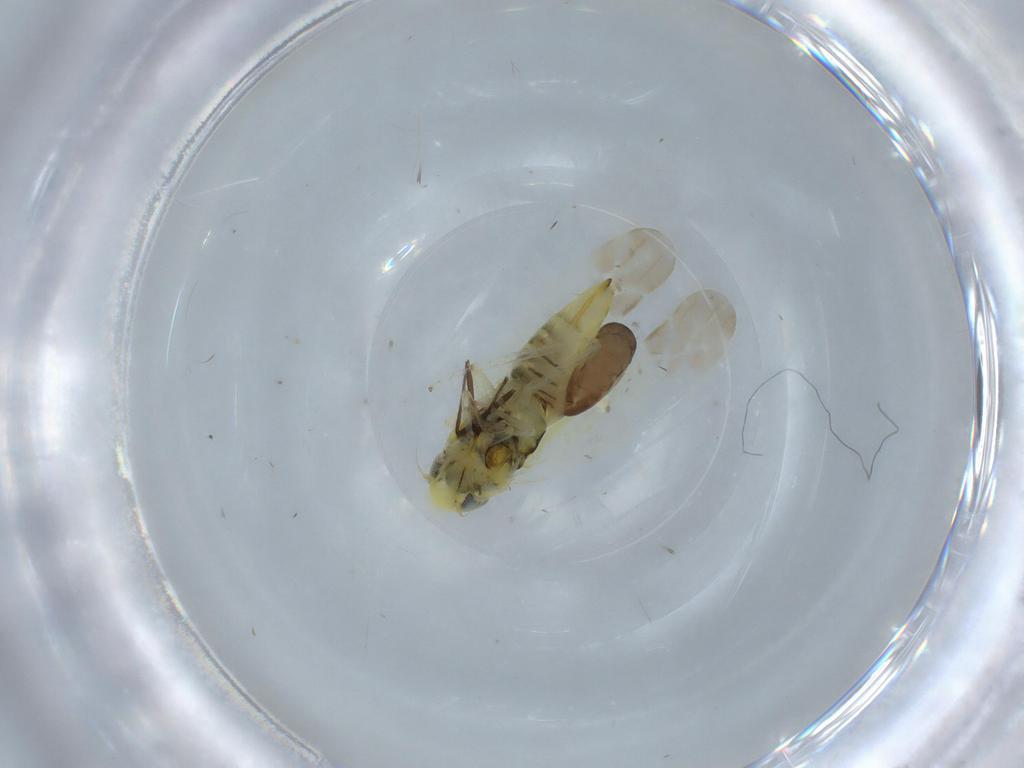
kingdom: Animalia
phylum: Arthropoda
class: Insecta
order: Hemiptera
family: Cicadellidae
